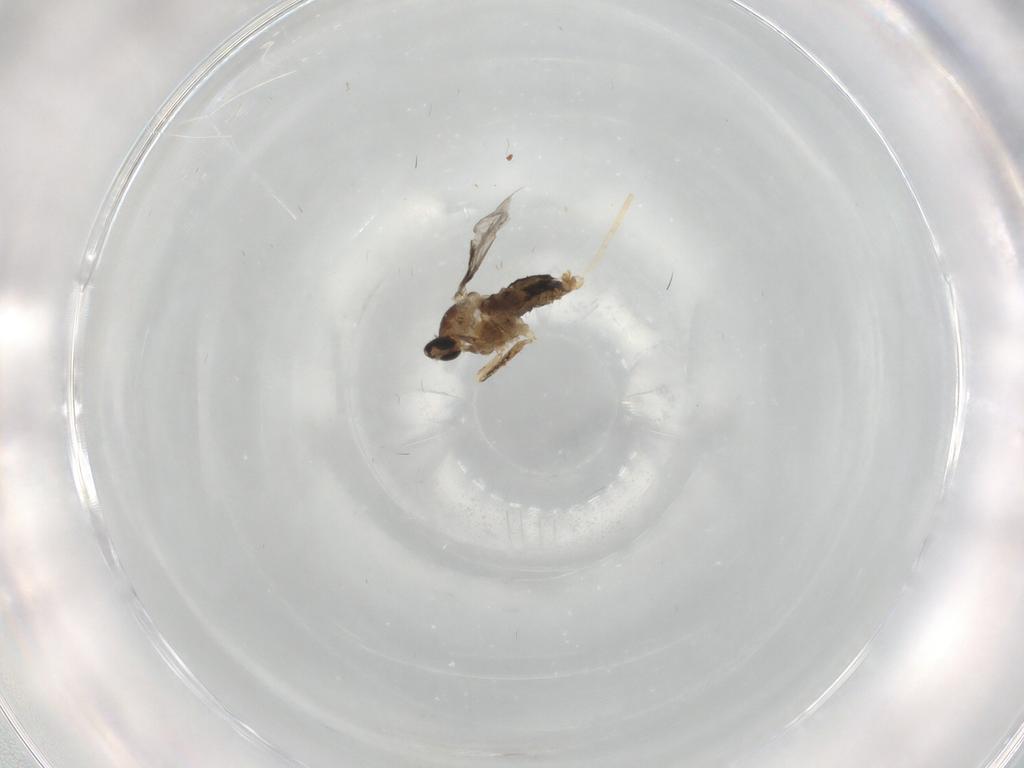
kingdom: Animalia
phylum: Arthropoda
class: Insecta
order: Diptera
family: Cecidomyiidae
